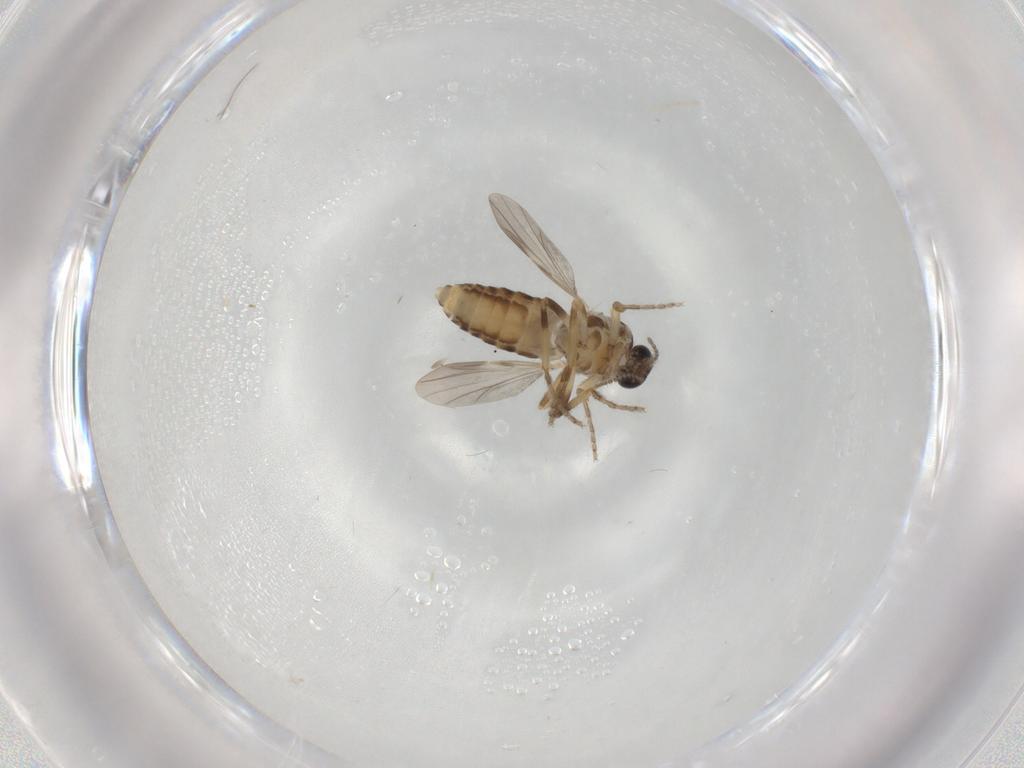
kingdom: Animalia
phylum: Arthropoda
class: Insecta
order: Diptera
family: Ceratopogonidae
